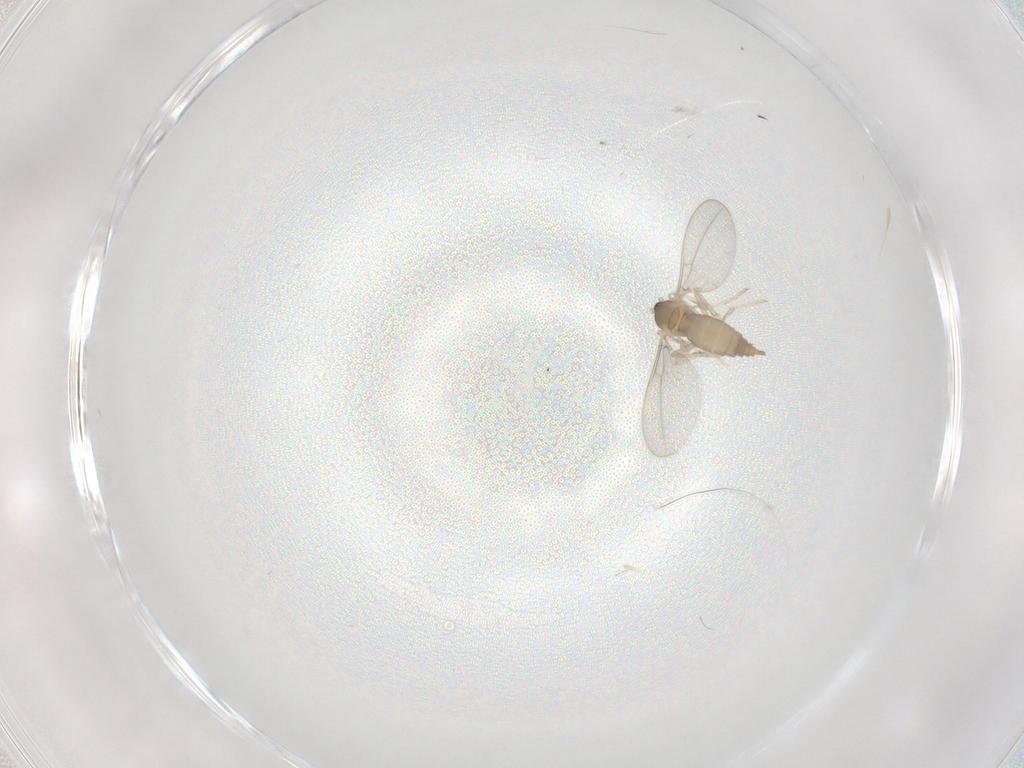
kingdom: Animalia
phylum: Arthropoda
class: Insecta
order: Diptera
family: Cecidomyiidae
